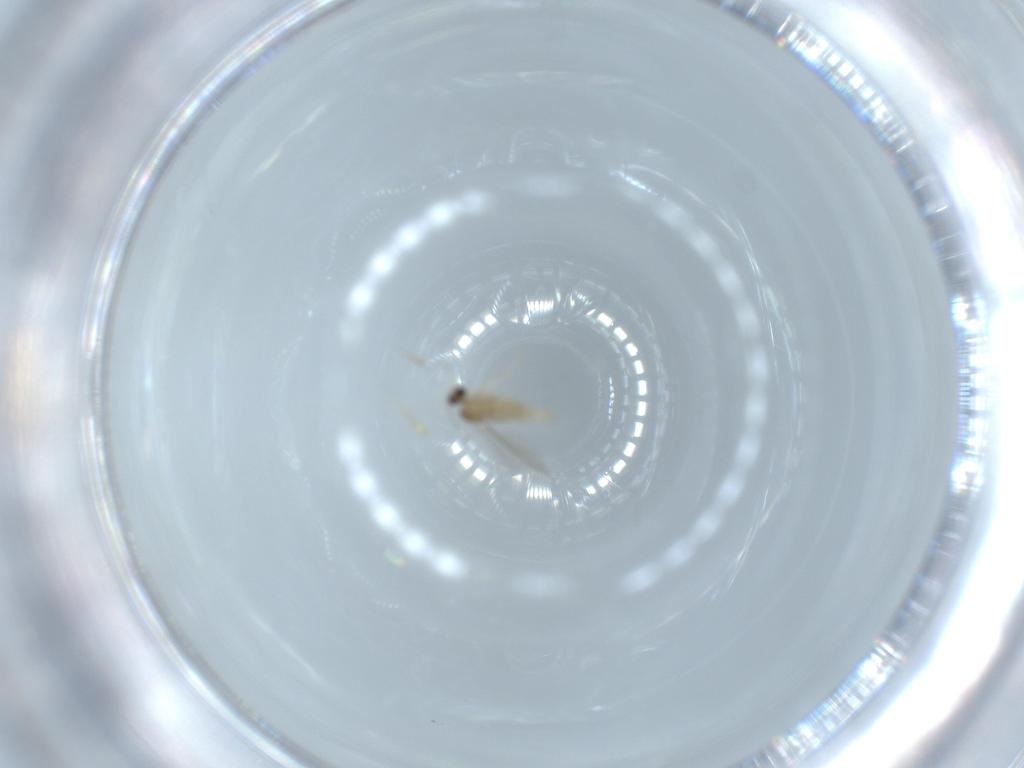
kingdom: Animalia
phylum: Arthropoda
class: Insecta
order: Diptera
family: Cecidomyiidae
